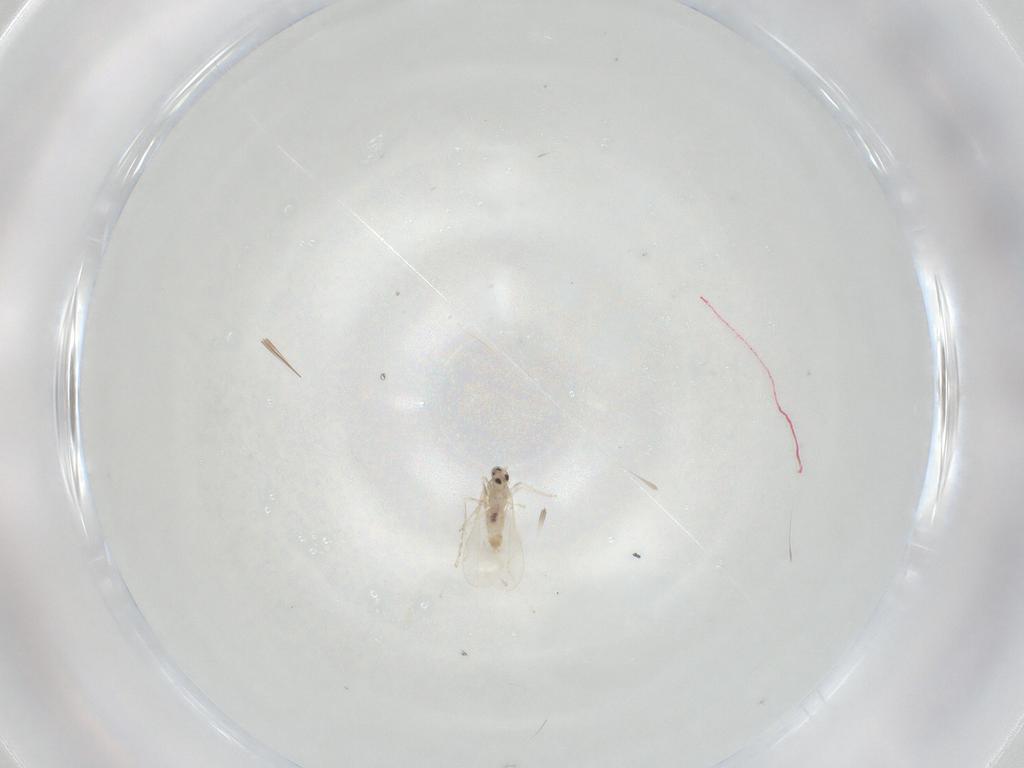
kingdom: Animalia
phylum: Arthropoda
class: Insecta
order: Diptera
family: Cecidomyiidae
